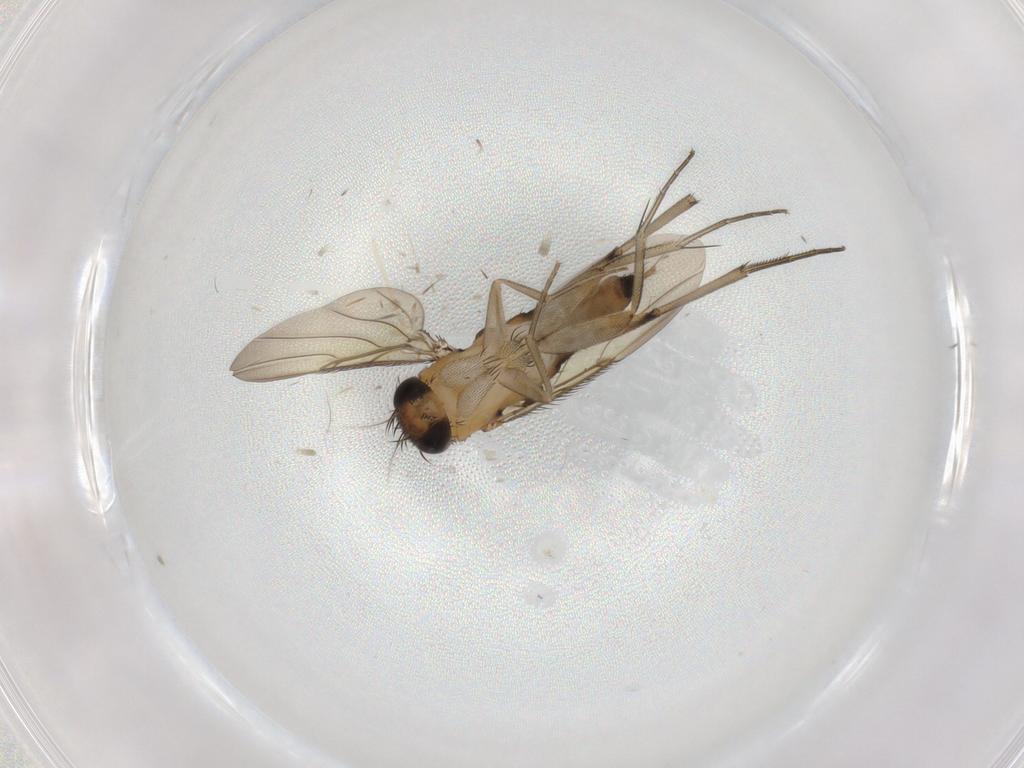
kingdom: Animalia
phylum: Arthropoda
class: Insecta
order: Diptera
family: Phoridae
